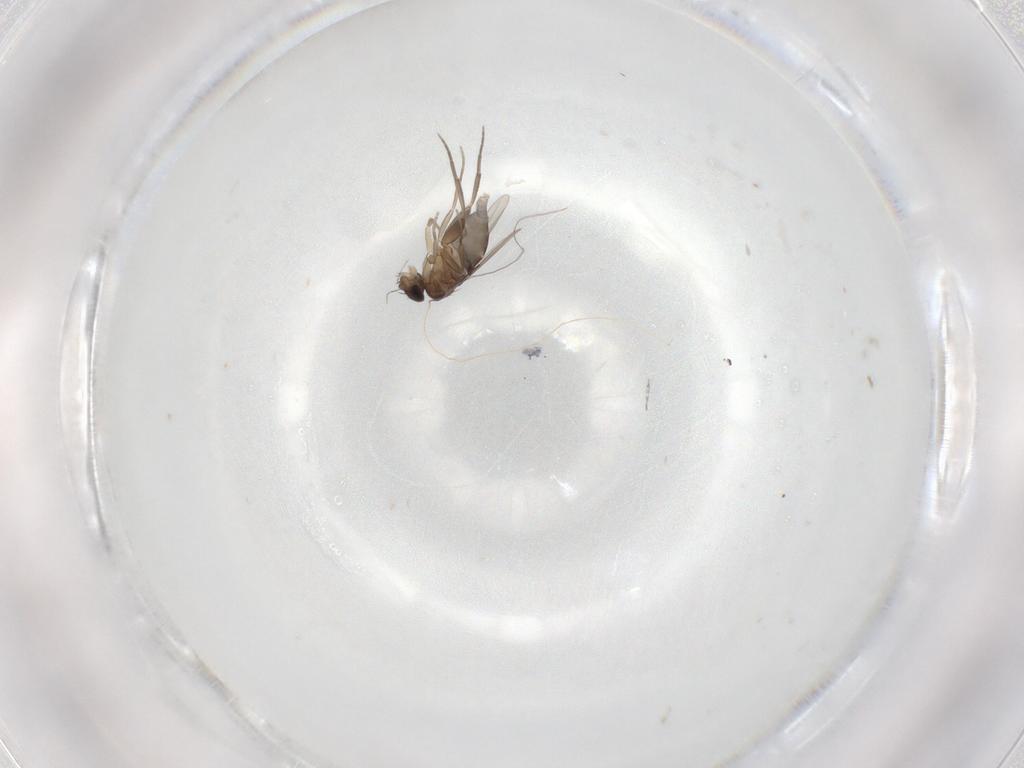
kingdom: Animalia
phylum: Arthropoda
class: Insecta
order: Diptera
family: Phoridae
